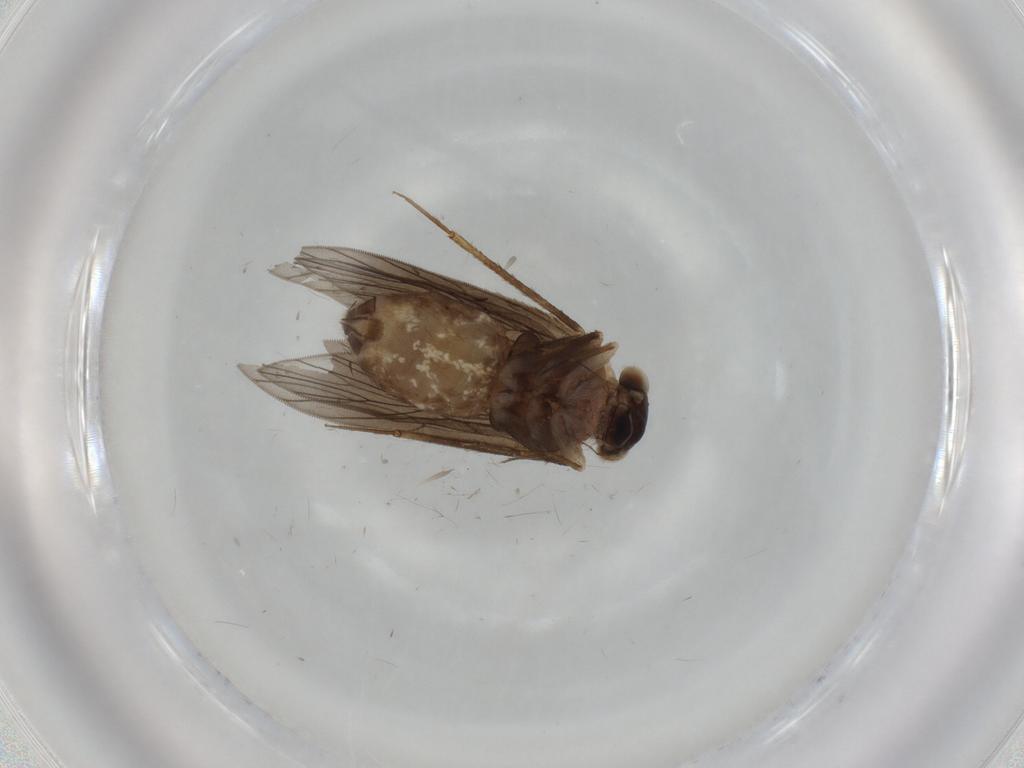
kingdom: Animalia
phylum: Arthropoda
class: Insecta
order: Psocodea
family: Lepidopsocidae
